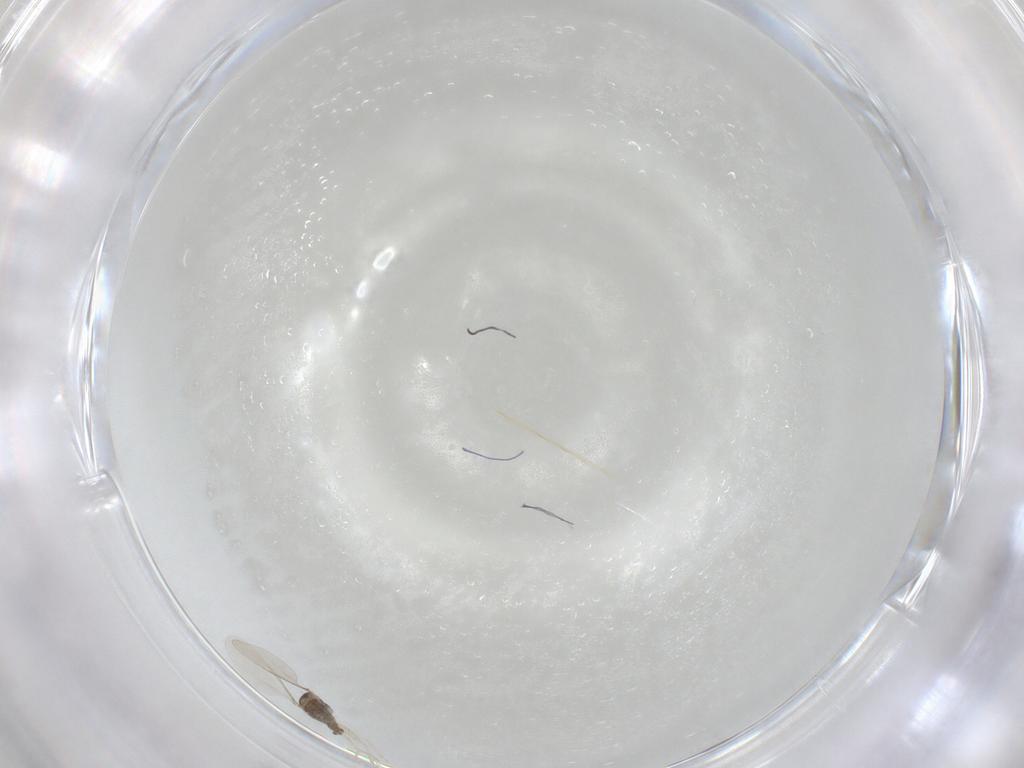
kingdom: Animalia
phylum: Arthropoda
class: Insecta
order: Diptera
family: Cecidomyiidae
